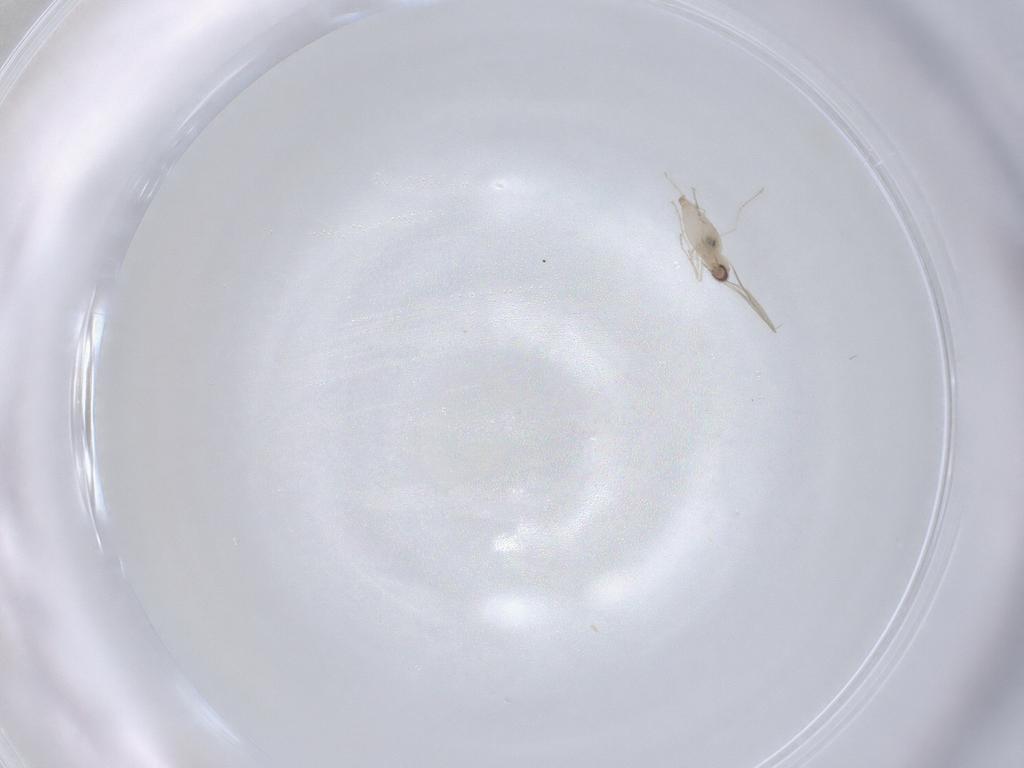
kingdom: Animalia
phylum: Arthropoda
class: Insecta
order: Diptera
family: Cecidomyiidae
